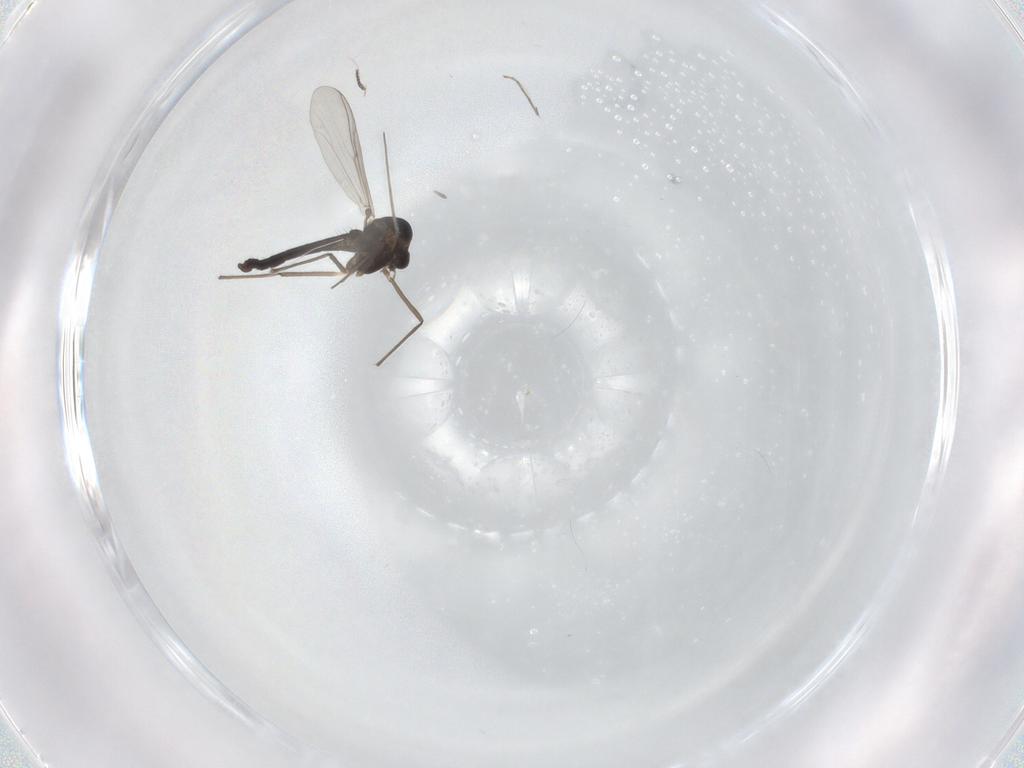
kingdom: Animalia
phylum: Arthropoda
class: Insecta
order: Diptera
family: Chironomidae
